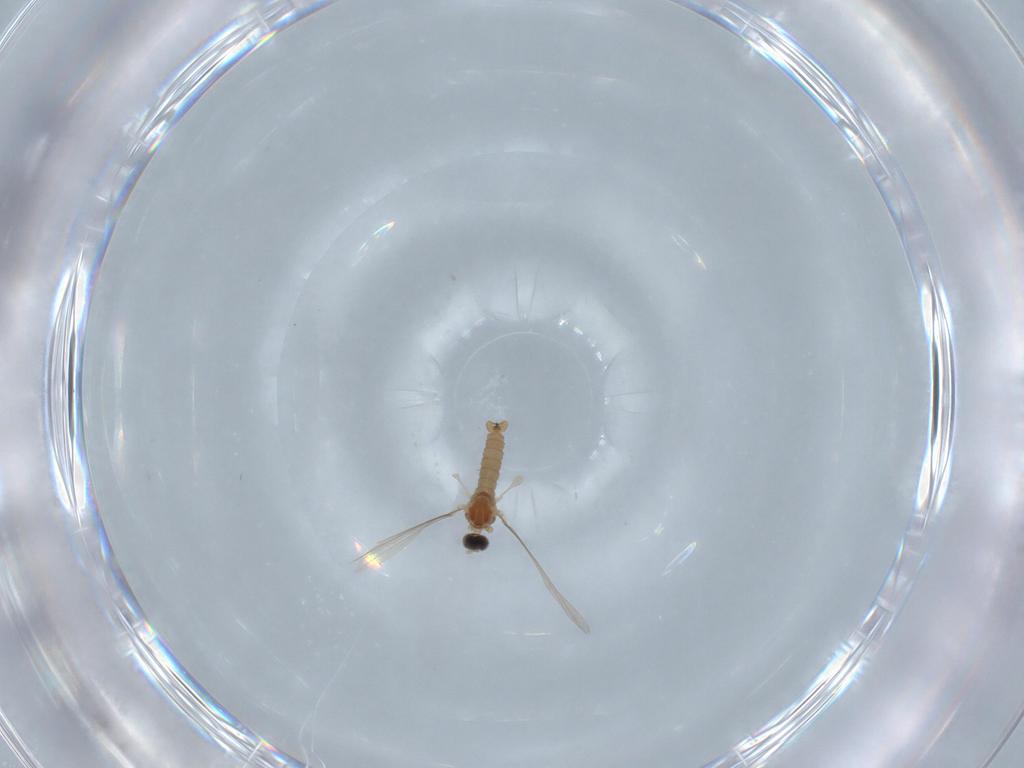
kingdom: Animalia
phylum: Arthropoda
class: Insecta
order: Diptera
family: Cecidomyiidae
